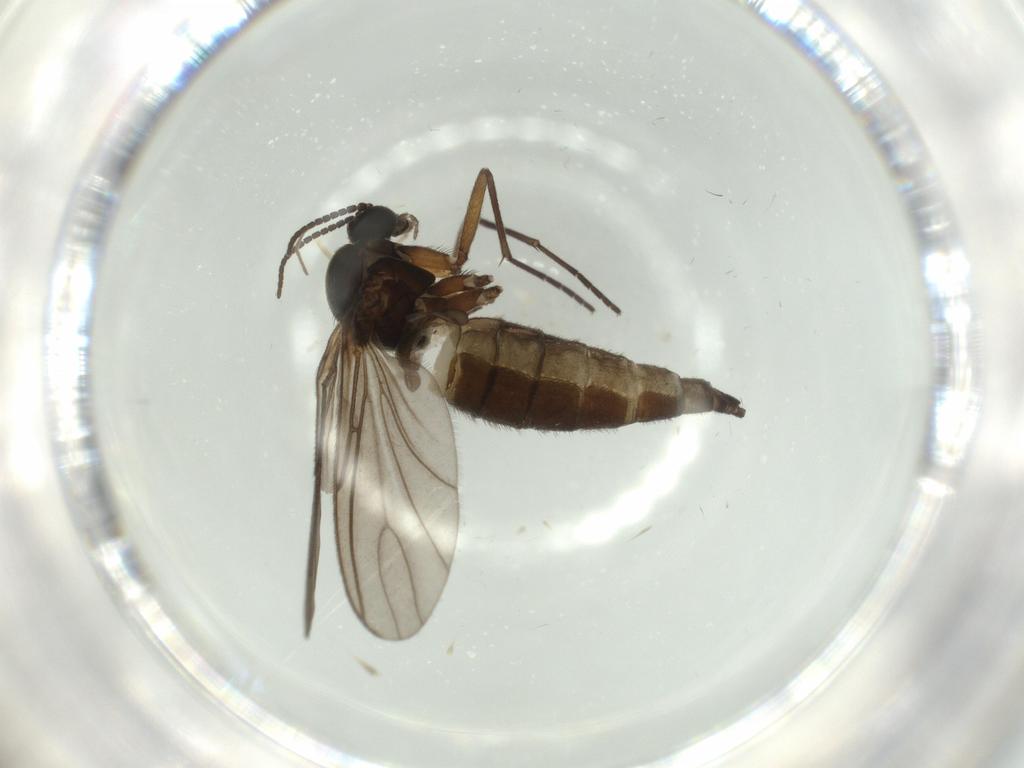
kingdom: Animalia
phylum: Arthropoda
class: Insecta
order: Diptera
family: Sciaridae
